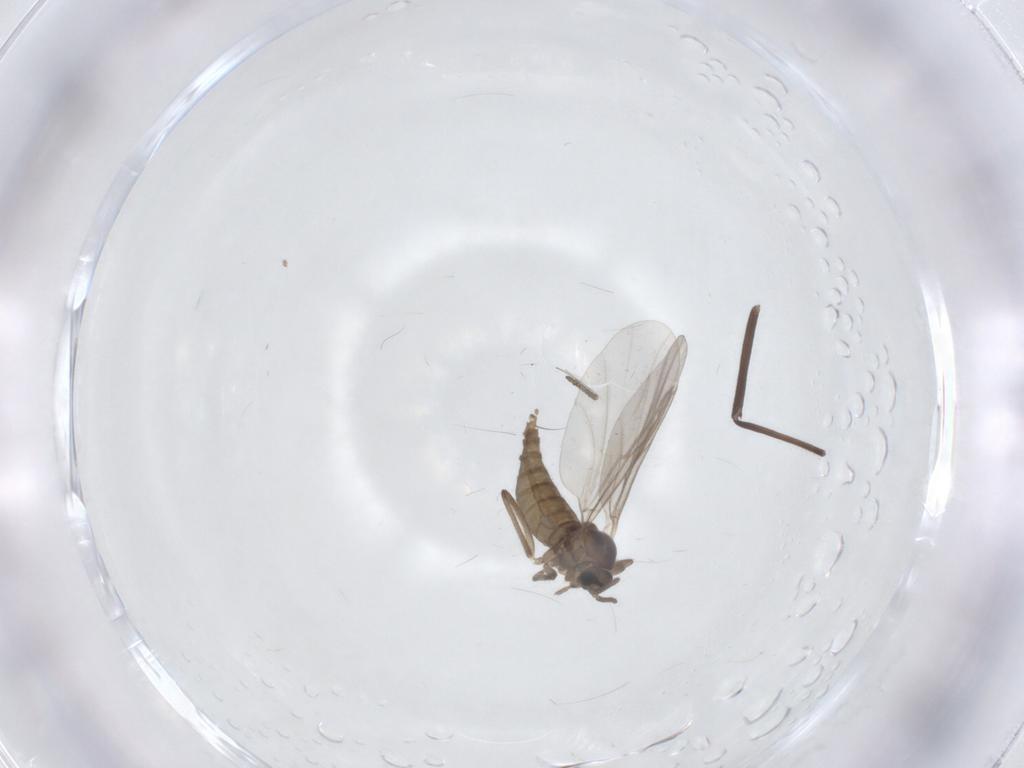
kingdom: Animalia
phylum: Arthropoda
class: Insecta
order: Diptera
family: Cecidomyiidae
